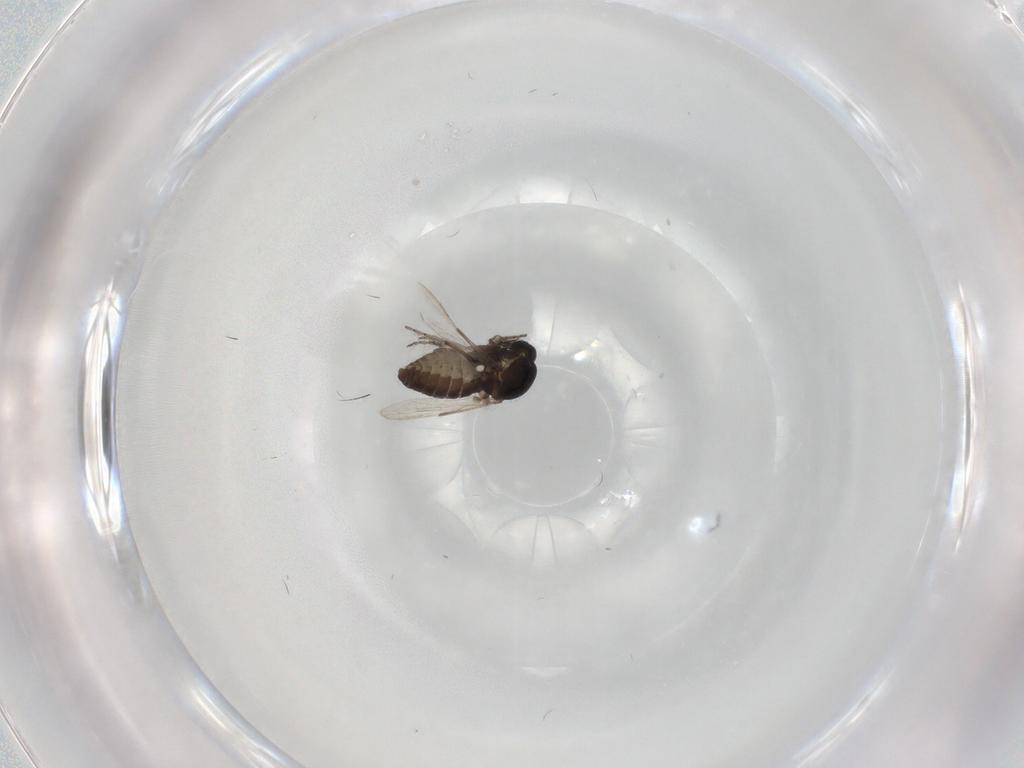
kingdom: Animalia
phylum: Arthropoda
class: Insecta
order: Diptera
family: Ceratopogonidae
